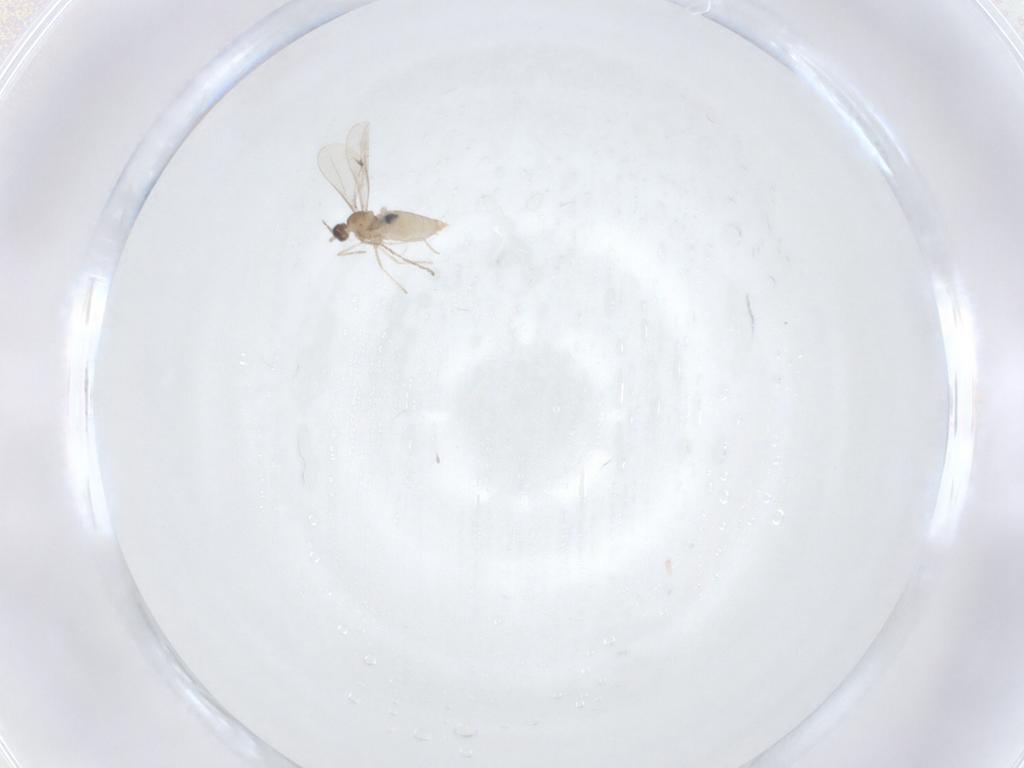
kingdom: Animalia
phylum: Arthropoda
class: Insecta
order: Diptera
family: Cecidomyiidae
